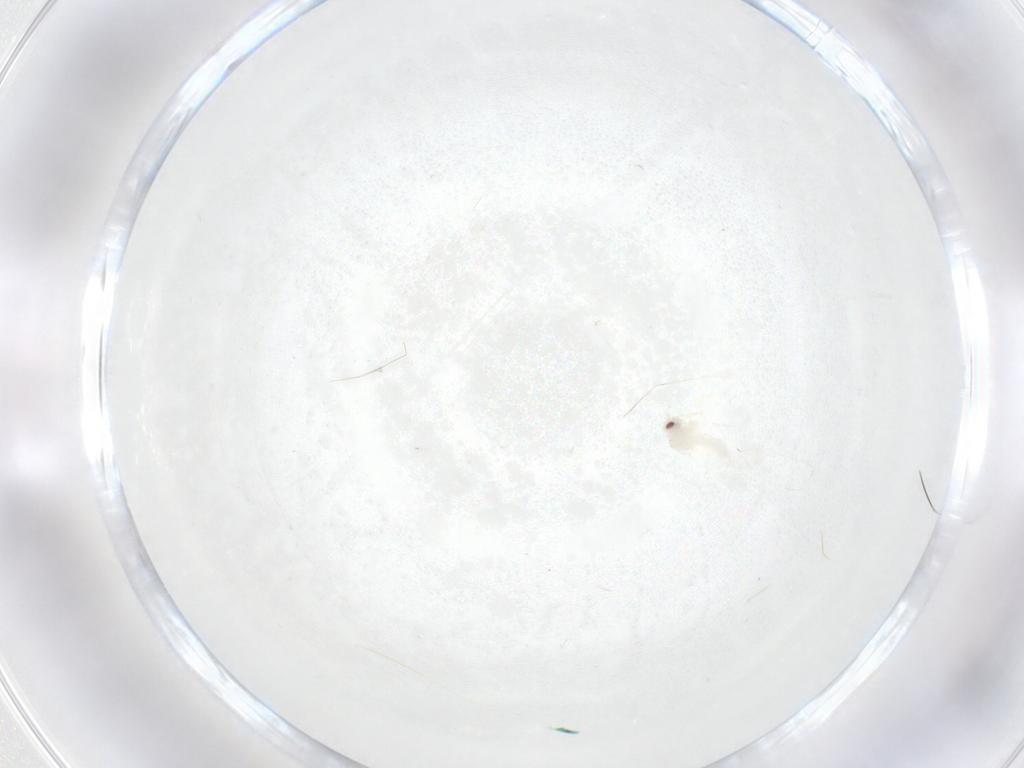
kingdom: Animalia
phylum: Arthropoda
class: Insecta
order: Hemiptera
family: Aleyrodidae
